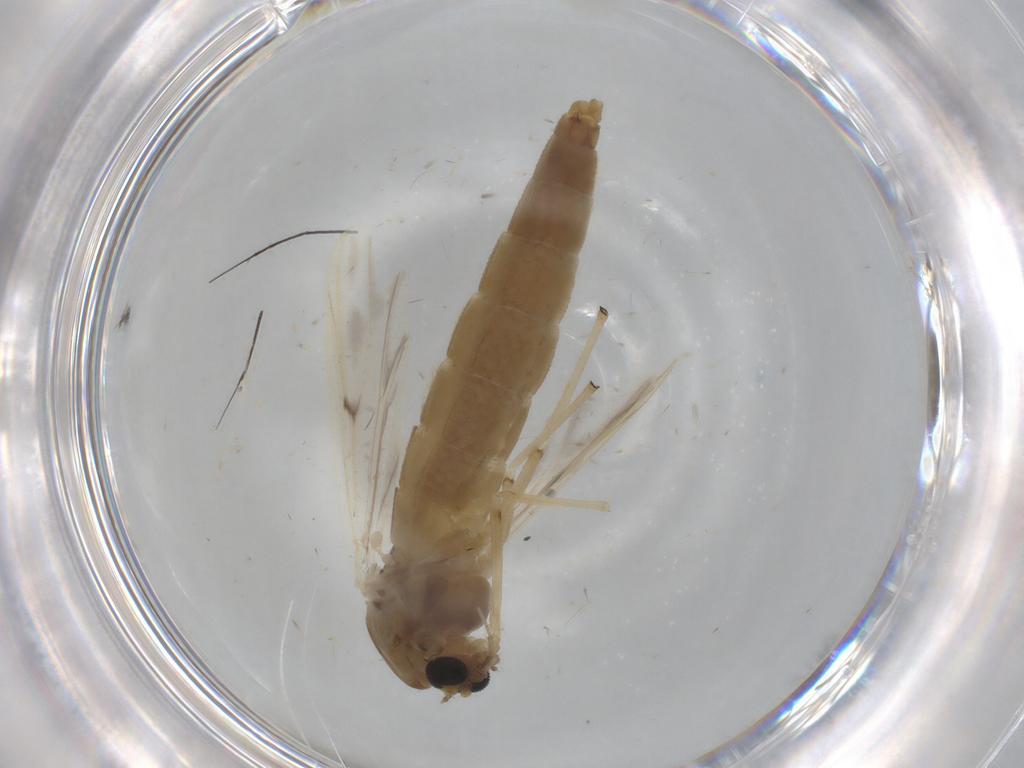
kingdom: Animalia
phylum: Arthropoda
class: Insecta
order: Diptera
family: Chironomidae
